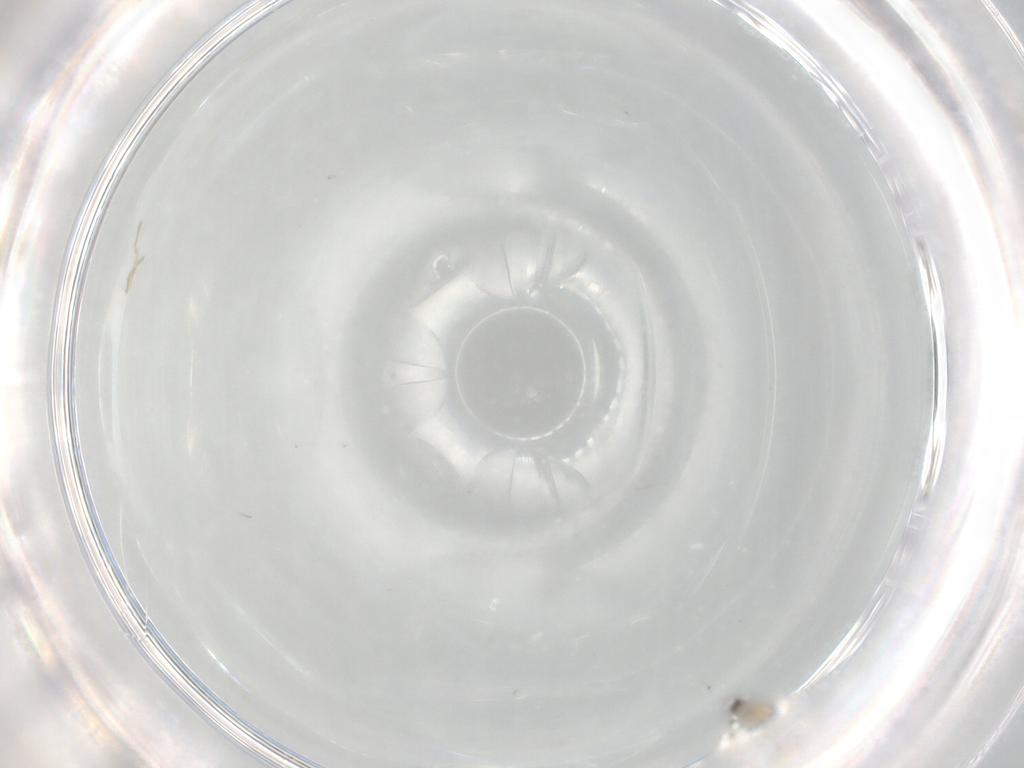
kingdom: Animalia
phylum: Arthropoda
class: Insecta
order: Diptera
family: Cecidomyiidae
